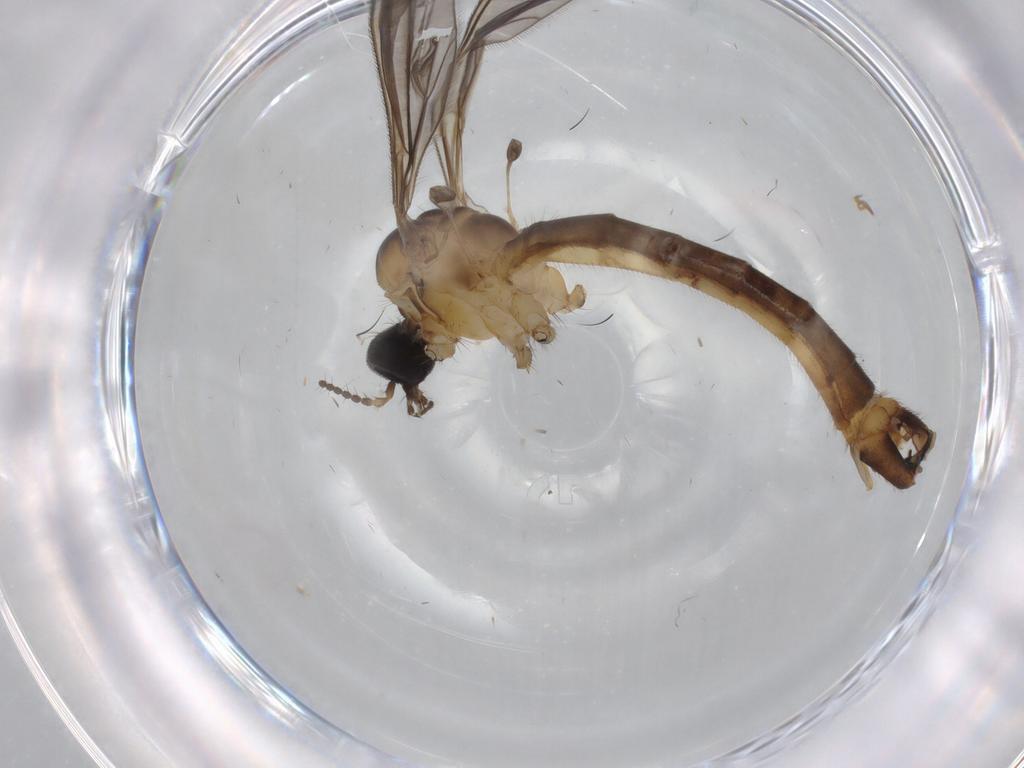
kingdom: Animalia
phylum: Arthropoda
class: Insecta
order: Diptera
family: Chironomidae
